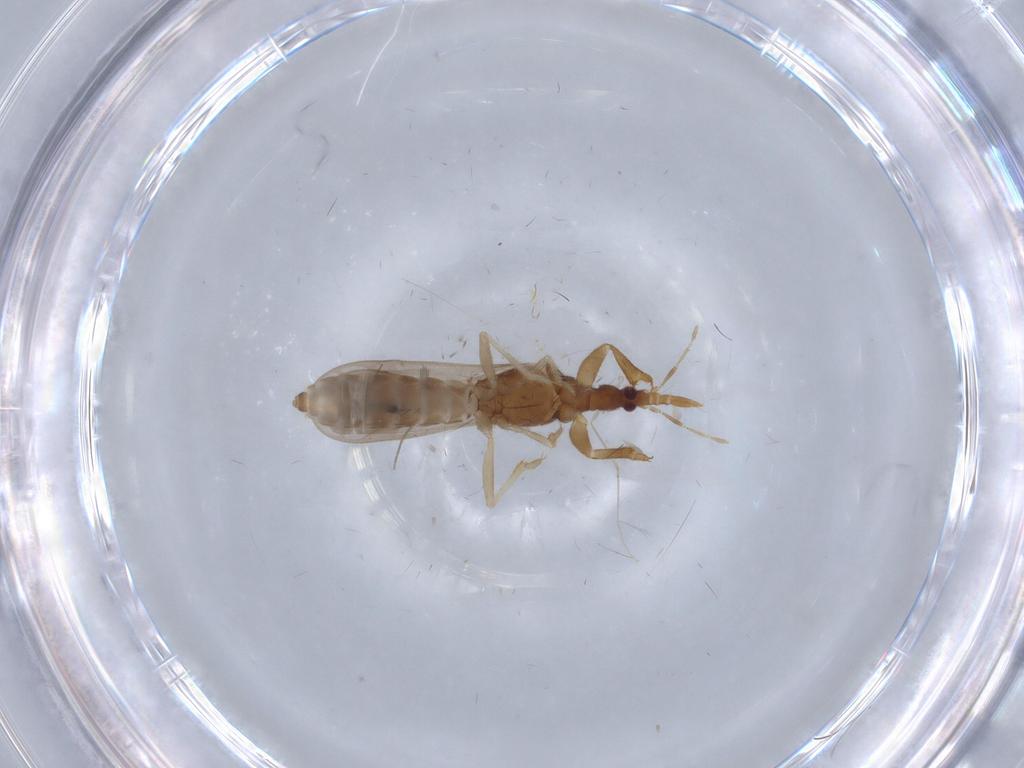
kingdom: Animalia
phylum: Arthropoda
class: Insecta
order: Hemiptera
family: Enicocephalidae
